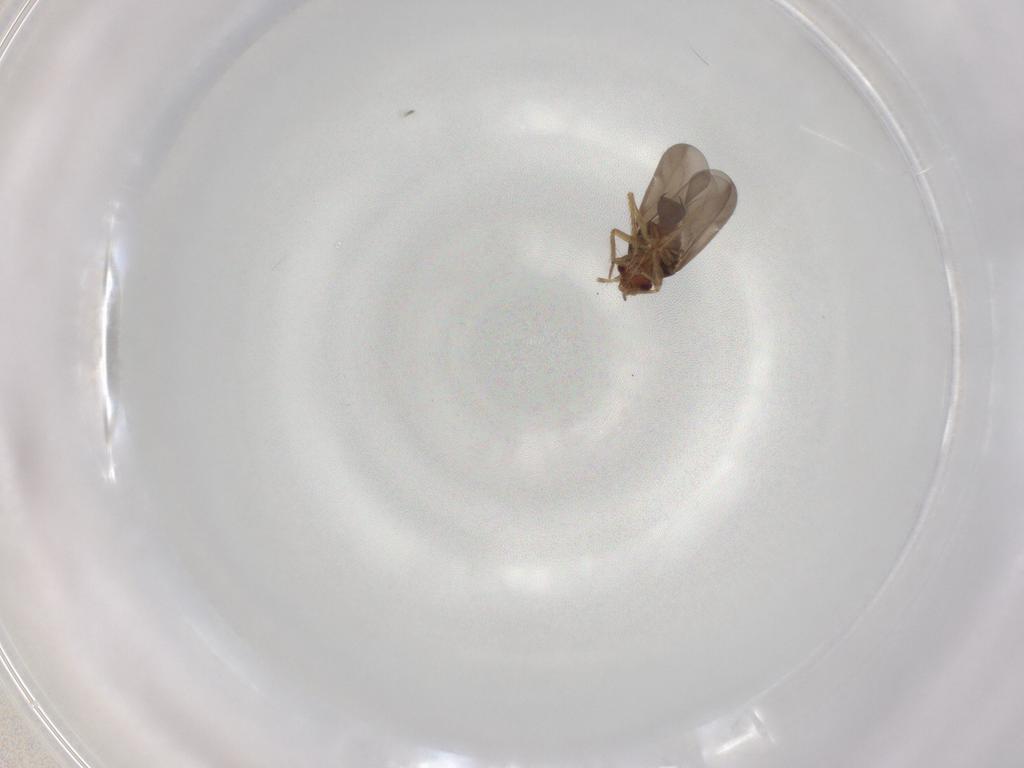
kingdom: Animalia
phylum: Arthropoda
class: Insecta
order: Hemiptera
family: Ceratocombidae
